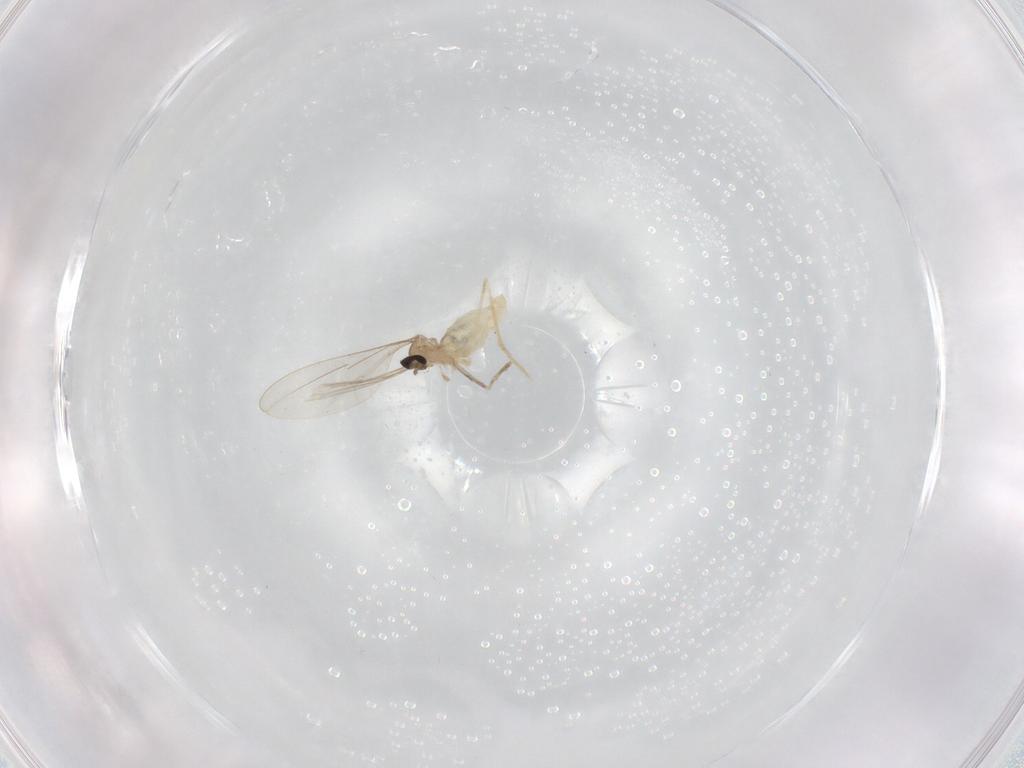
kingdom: Animalia
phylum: Arthropoda
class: Insecta
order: Diptera
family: Cecidomyiidae
